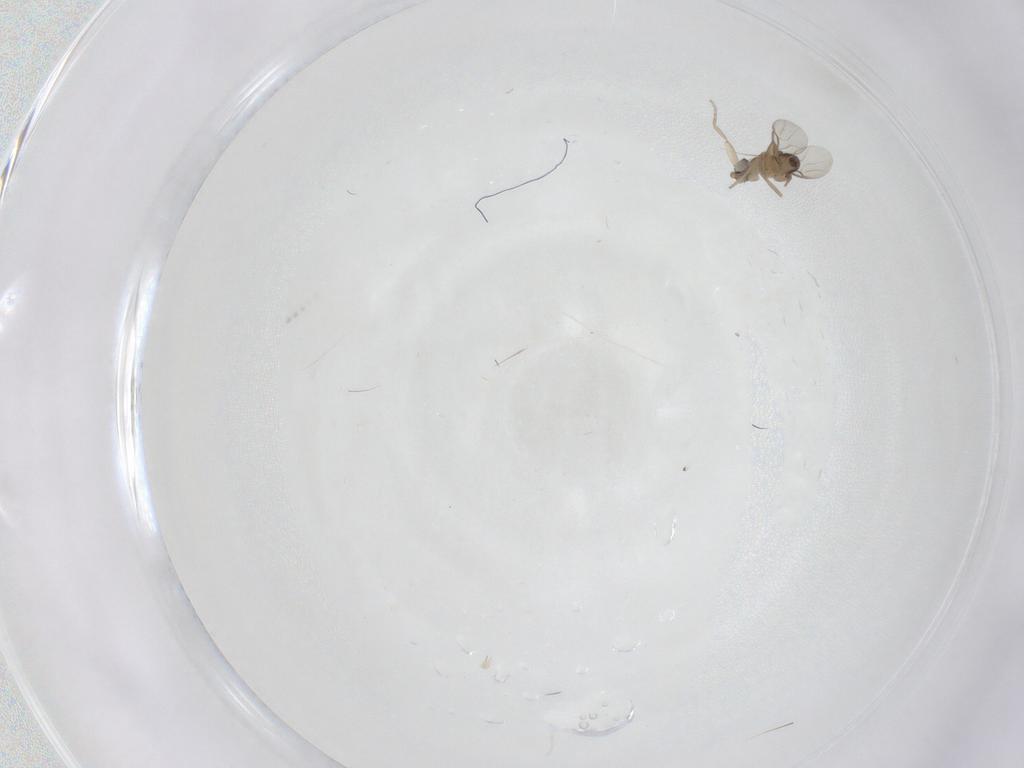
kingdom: Animalia
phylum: Arthropoda
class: Insecta
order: Diptera
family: Phoridae
